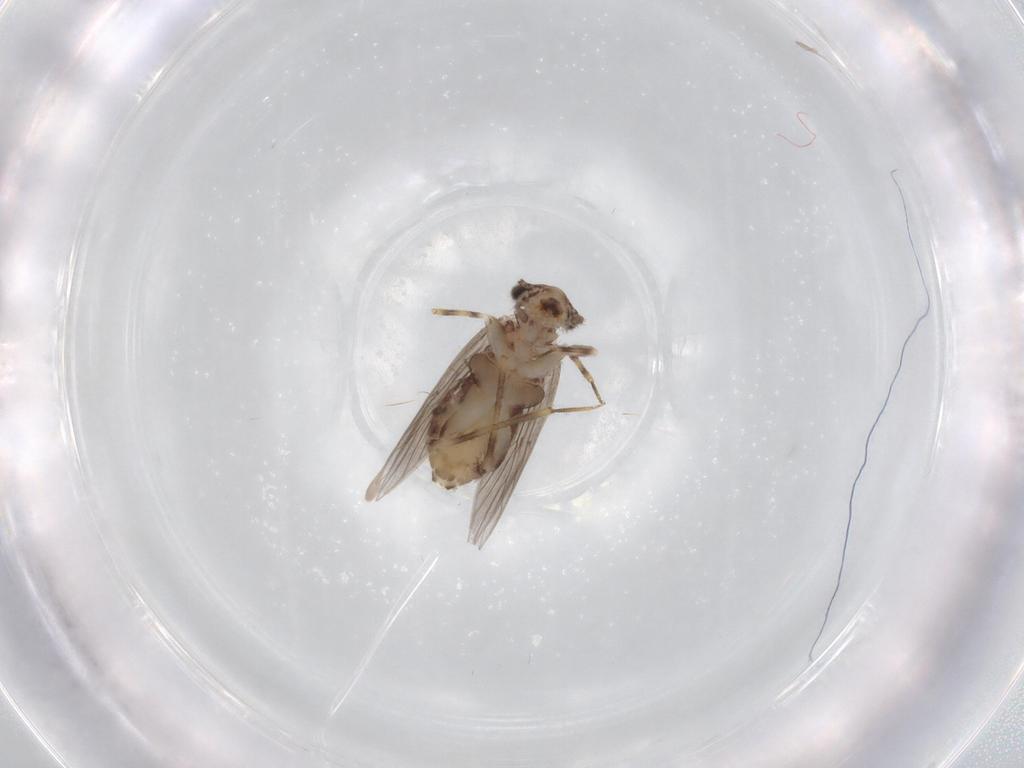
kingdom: Animalia
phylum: Arthropoda
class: Insecta
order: Psocodea
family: Lepidopsocidae
